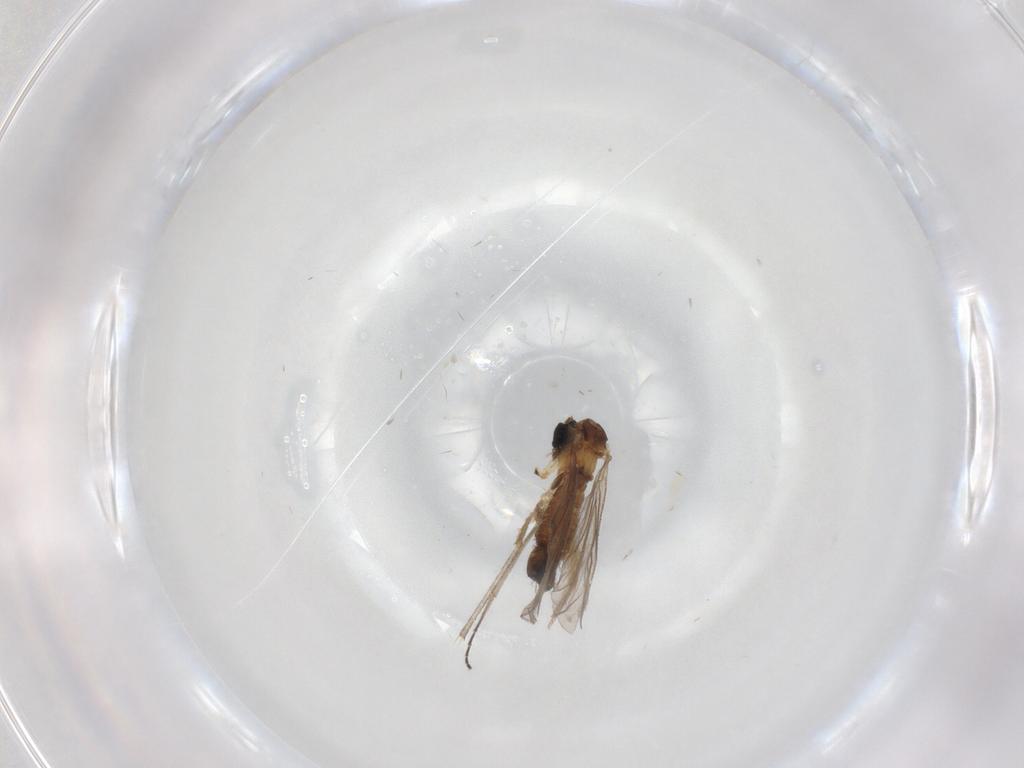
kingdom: Animalia
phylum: Arthropoda
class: Insecta
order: Diptera
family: Sciaridae
